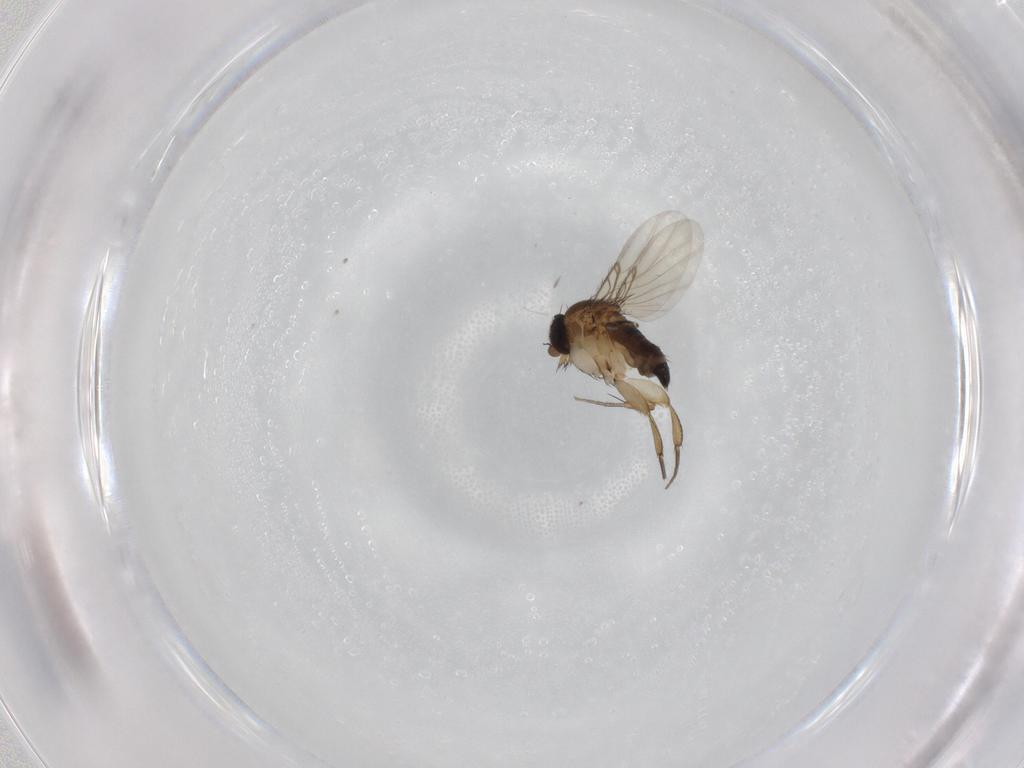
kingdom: Animalia
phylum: Arthropoda
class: Insecta
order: Diptera
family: Phoridae
